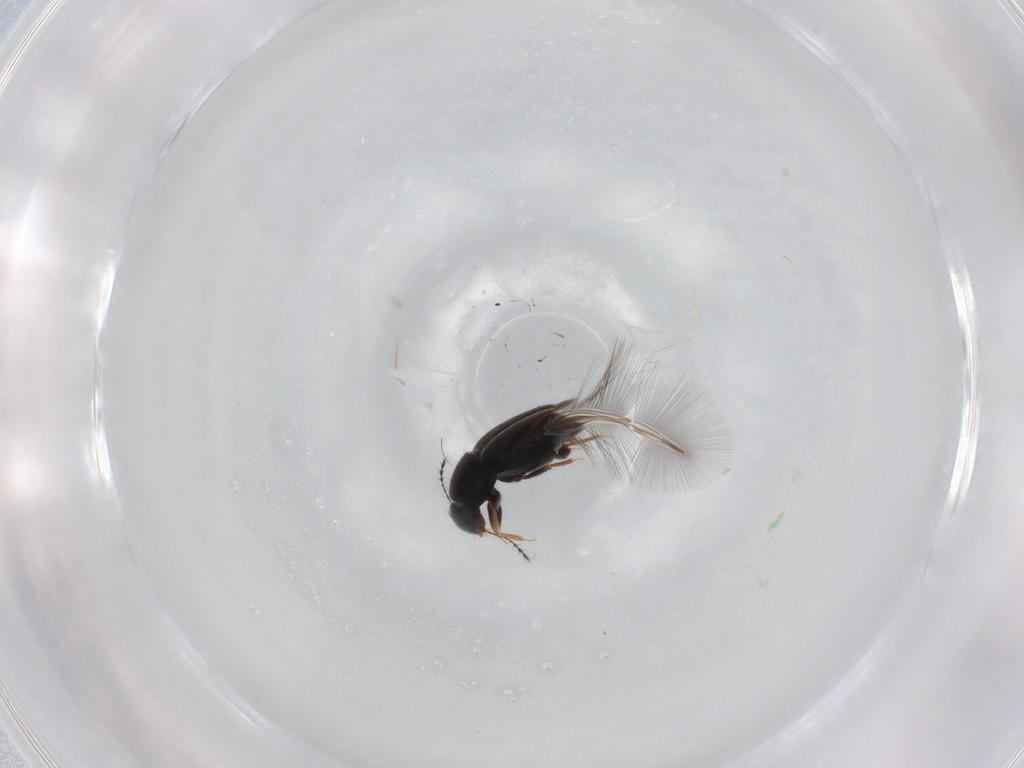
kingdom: Animalia
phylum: Arthropoda
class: Insecta
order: Coleoptera
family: Ptiliidae
